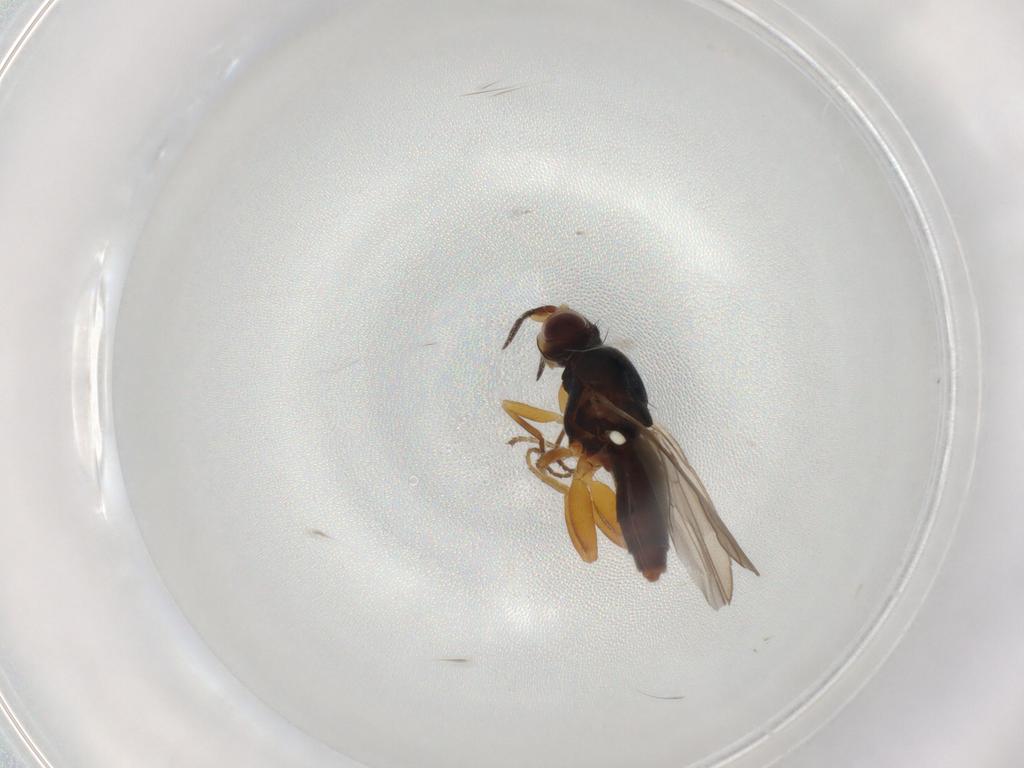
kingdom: Animalia
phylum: Arthropoda
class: Insecta
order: Diptera
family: Chloropidae
